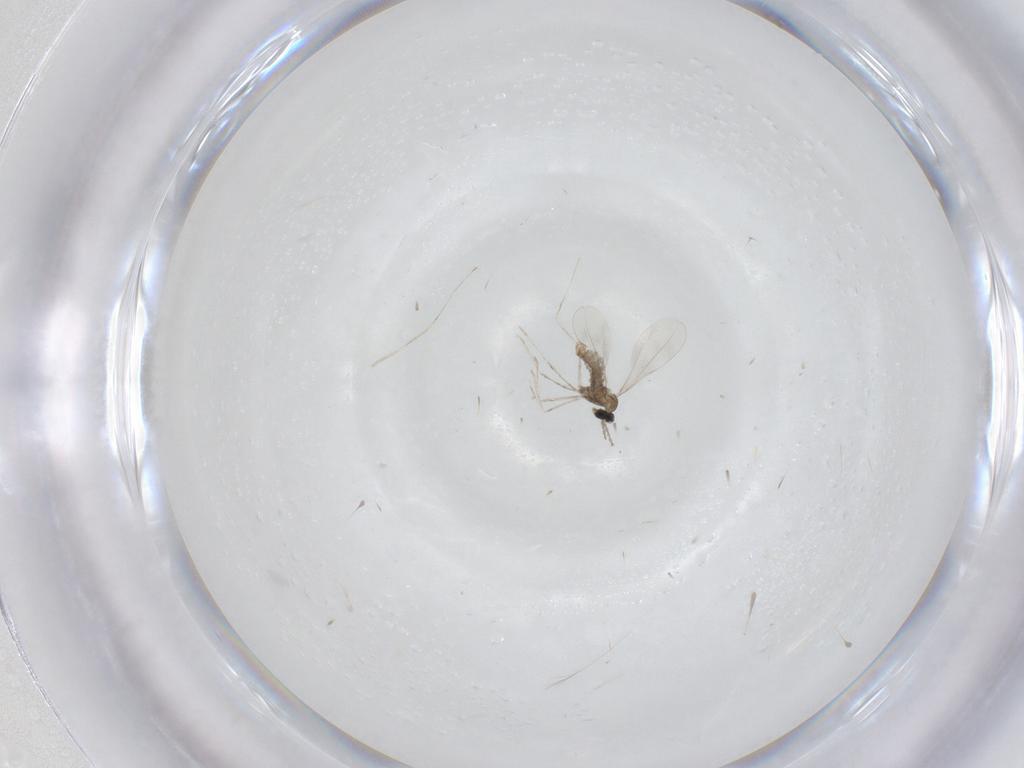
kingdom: Animalia
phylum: Arthropoda
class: Insecta
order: Diptera
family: Cecidomyiidae
